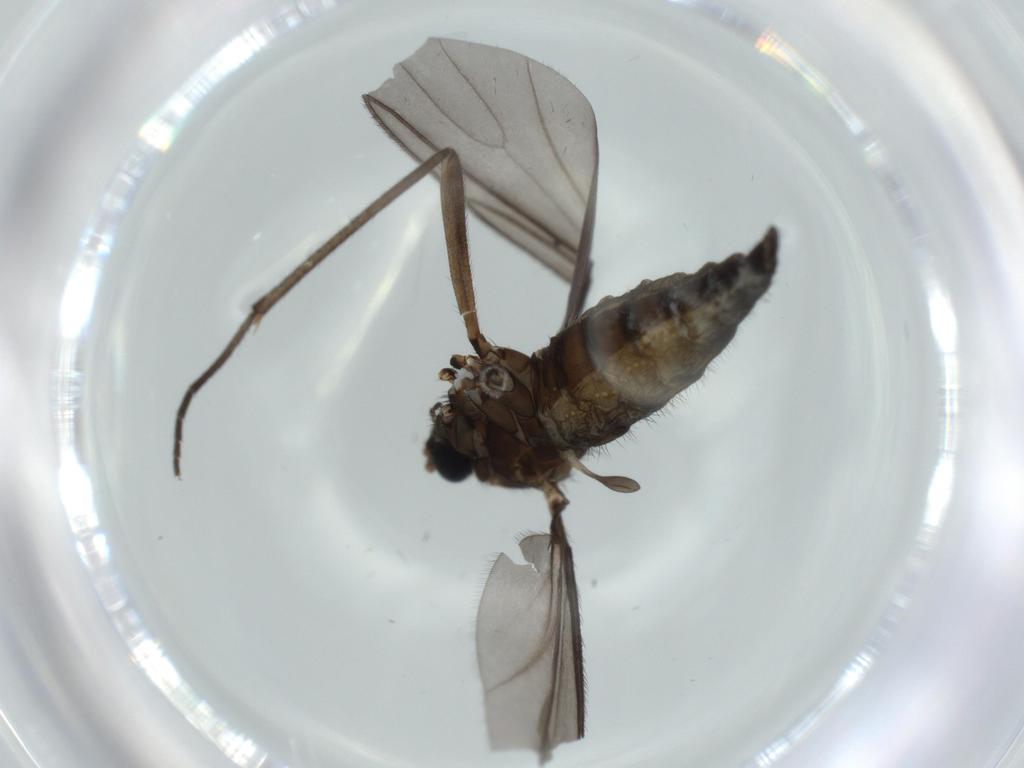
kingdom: Animalia
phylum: Arthropoda
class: Insecta
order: Diptera
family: Sciaridae
